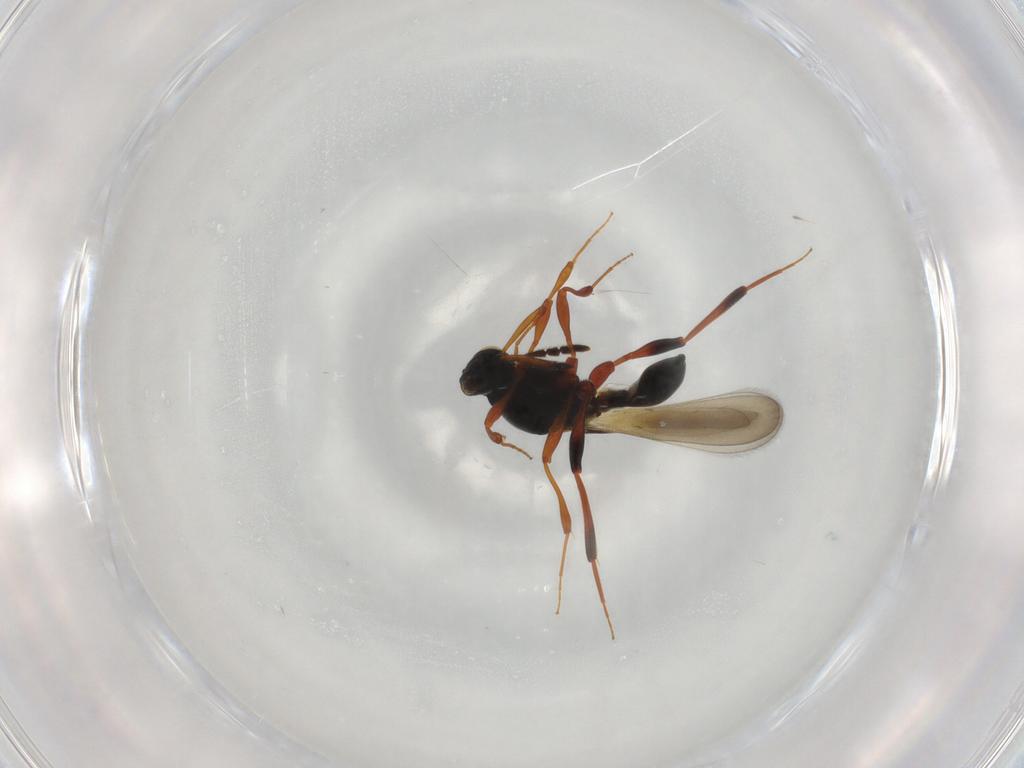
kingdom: Animalia
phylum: Arthropoda
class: Insecta
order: Hymenoptera
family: Platygastridae
